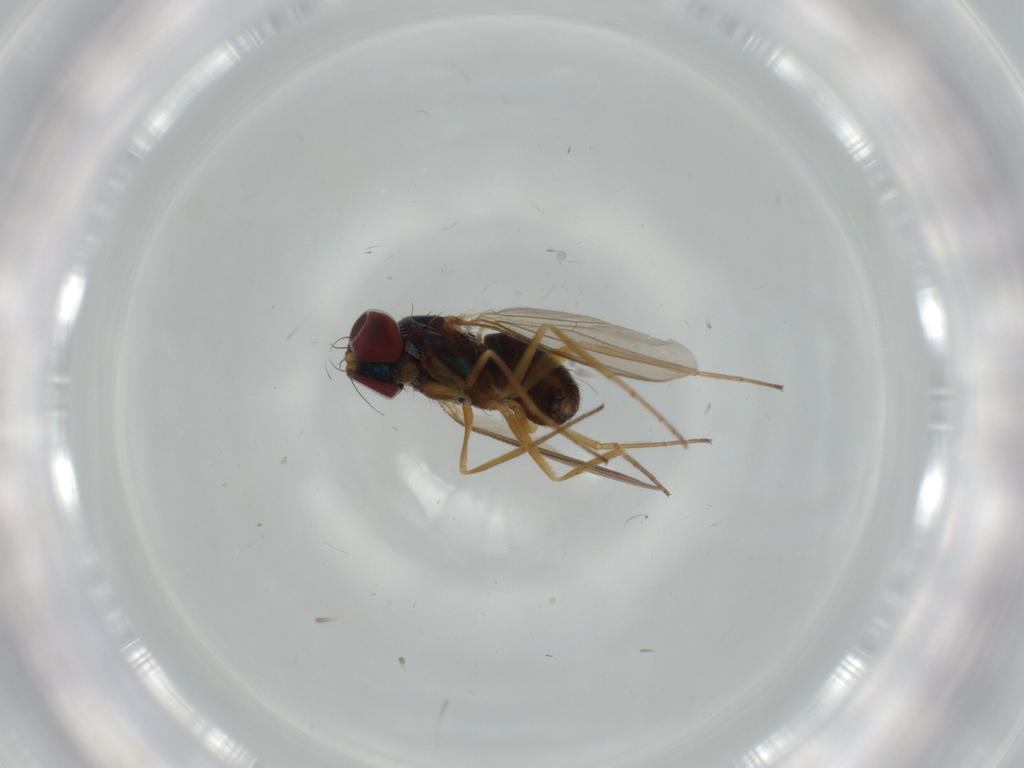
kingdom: Animalia
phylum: Arthropoda
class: Insecta
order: Diptera
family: Dolichopodidae
